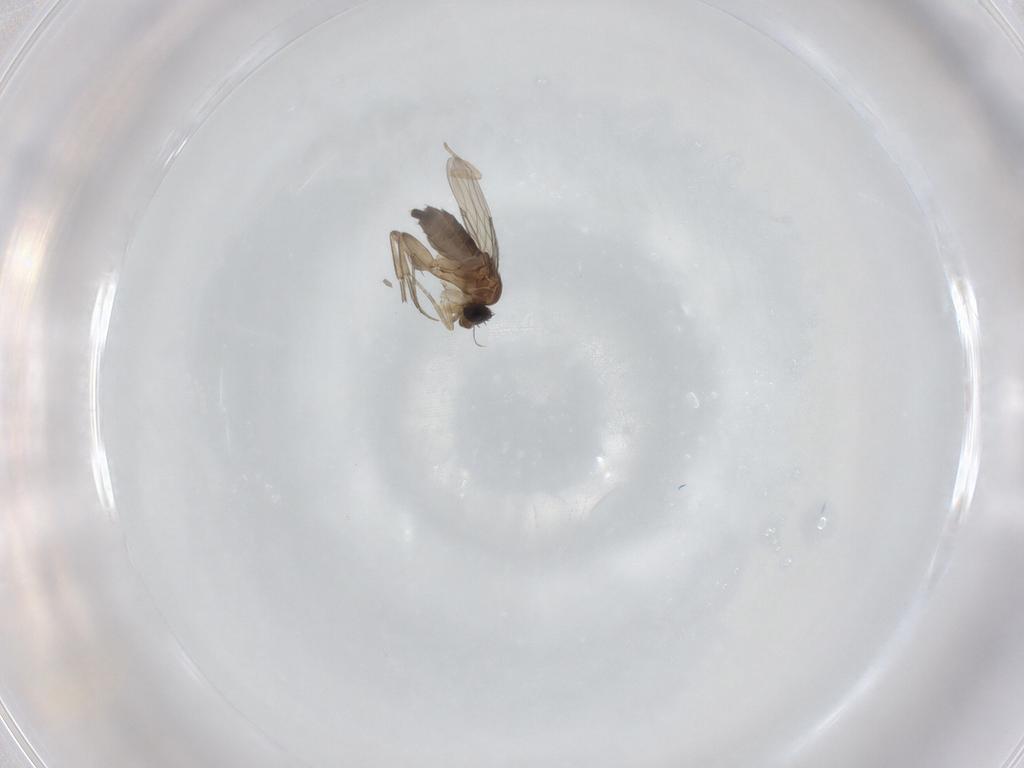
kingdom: Animalia
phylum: Arthropoda
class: Insecta
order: Diptera
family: Phoridae
